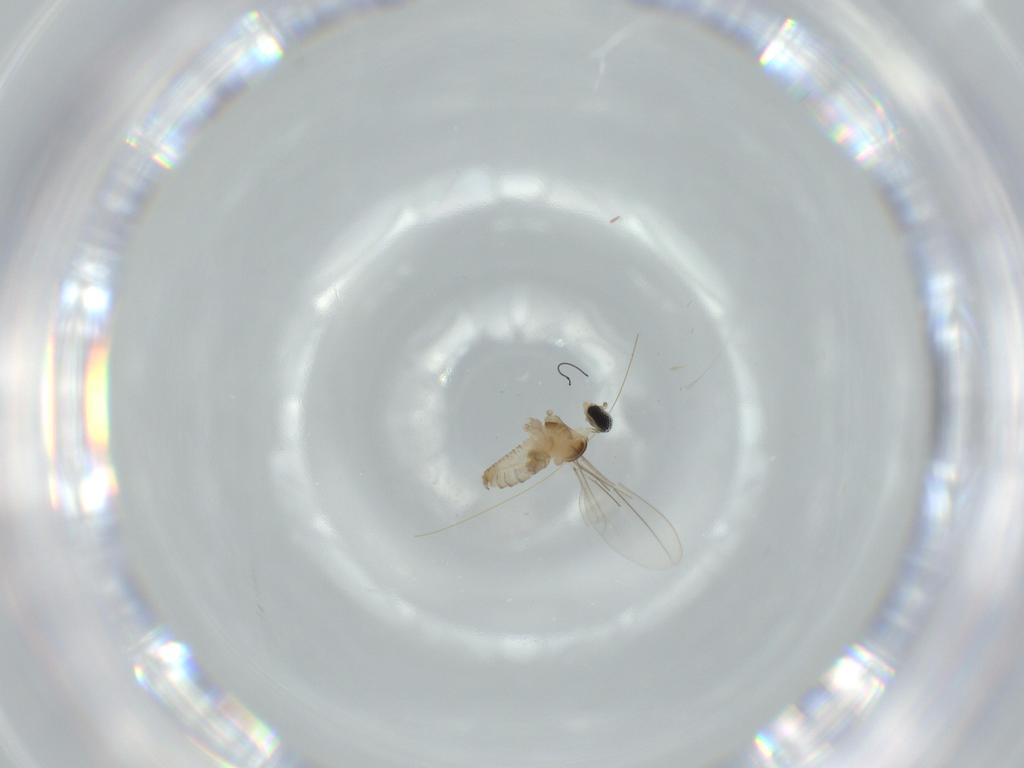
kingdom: Animalia
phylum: Arthropoda
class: Insecta
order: Diptera
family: Cecidomyiidae
